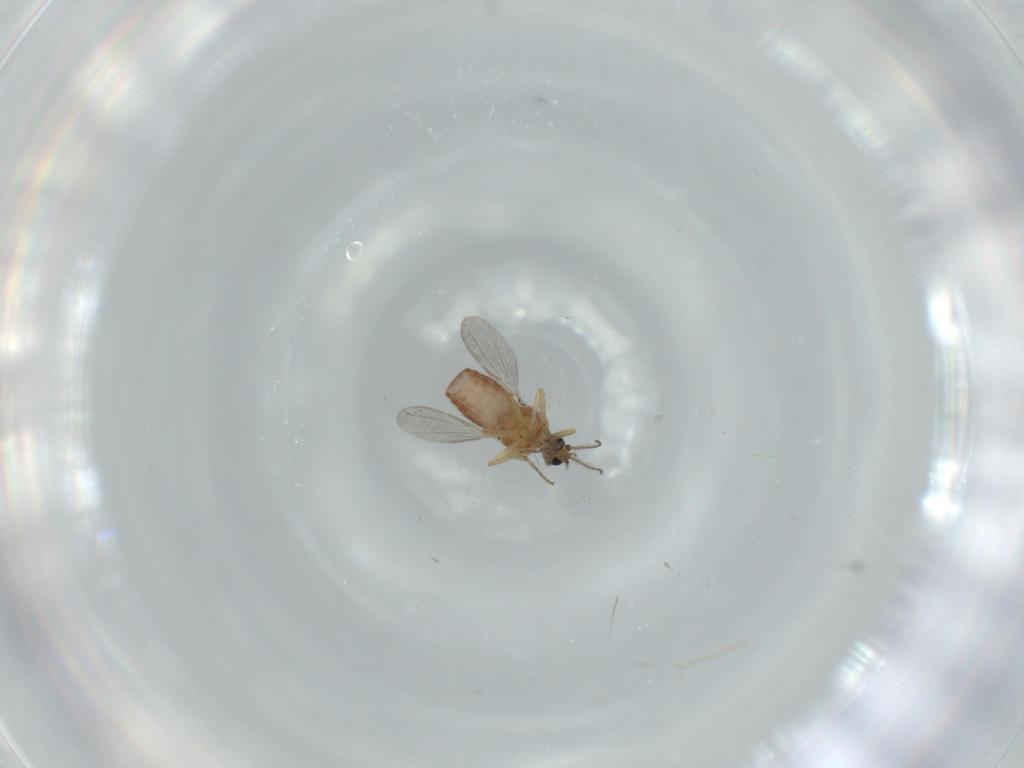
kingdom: Animalia
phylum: Arthropoda
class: Insecta
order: Diptera
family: Ceratopogonidae
